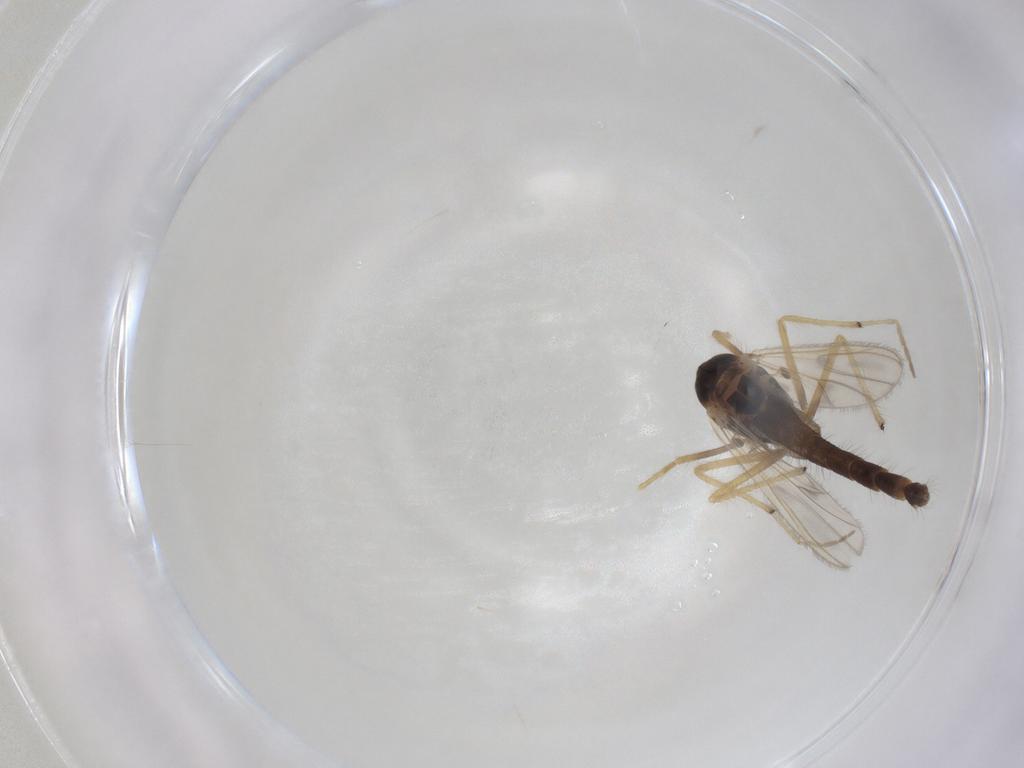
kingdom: Animalia
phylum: Arthropoda
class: Insecta
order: Diptera
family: Chironomidae
